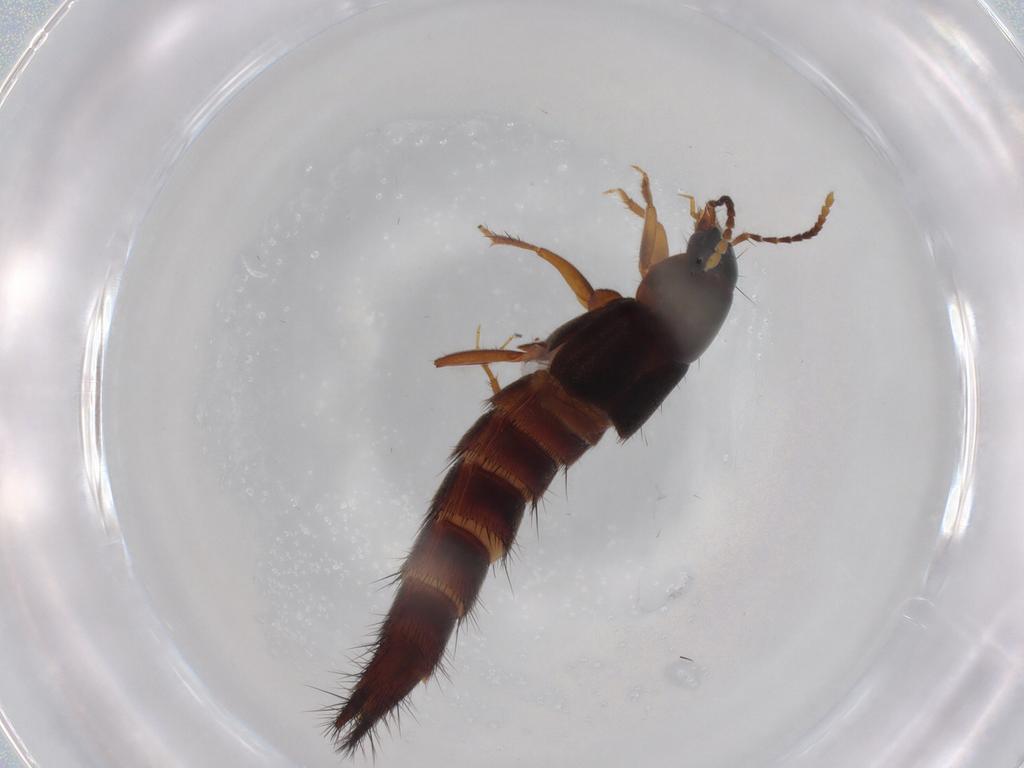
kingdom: Animalia
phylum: Arthropoda
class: Insecta
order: Coleoptera
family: Staphylinidae
